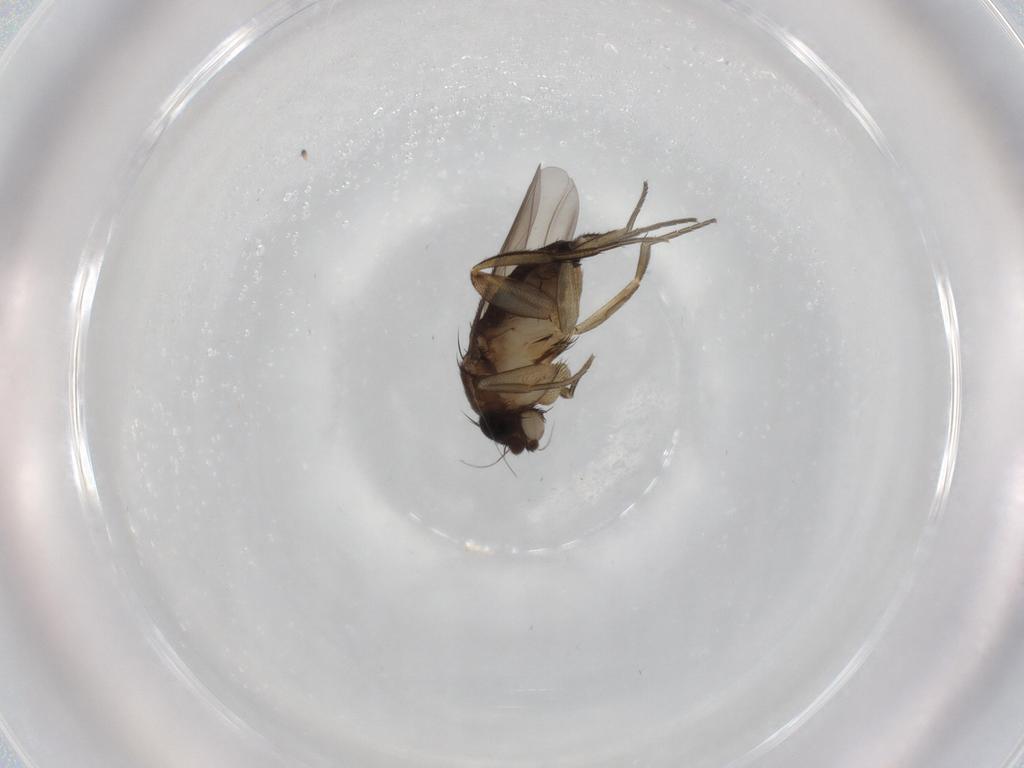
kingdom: Animalia
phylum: Arthropoda
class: Insecta
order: Diptera
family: Phoridae
